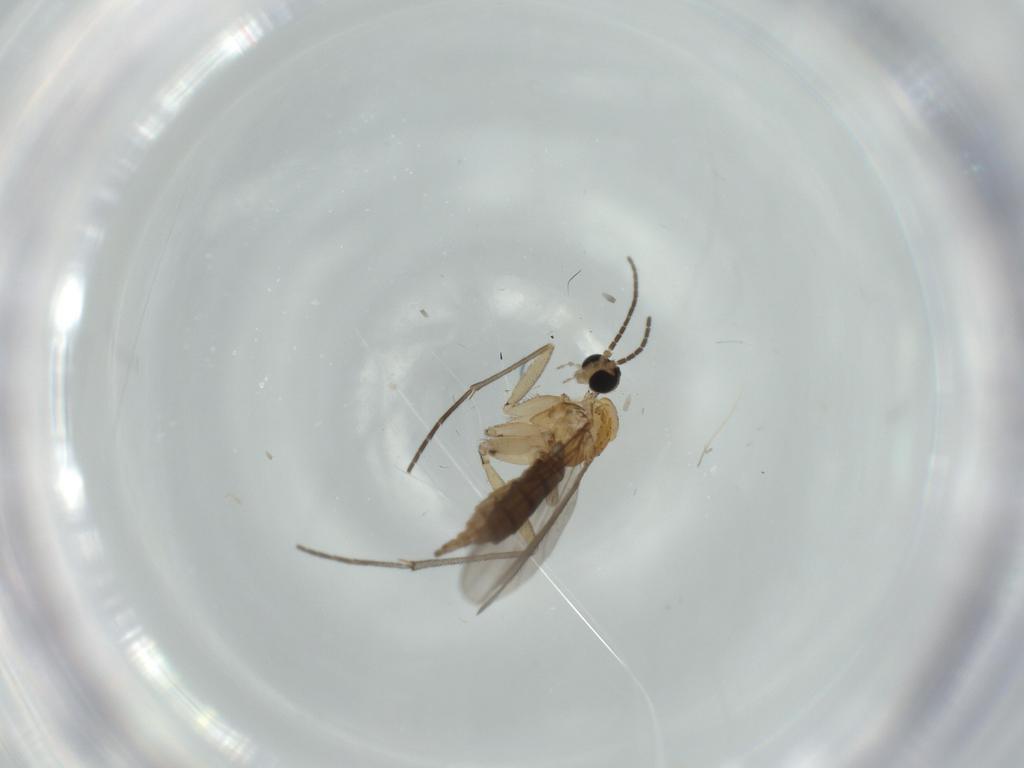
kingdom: Animalia
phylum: Arthropoda
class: Insecta
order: Diptera
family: Sciaridae
